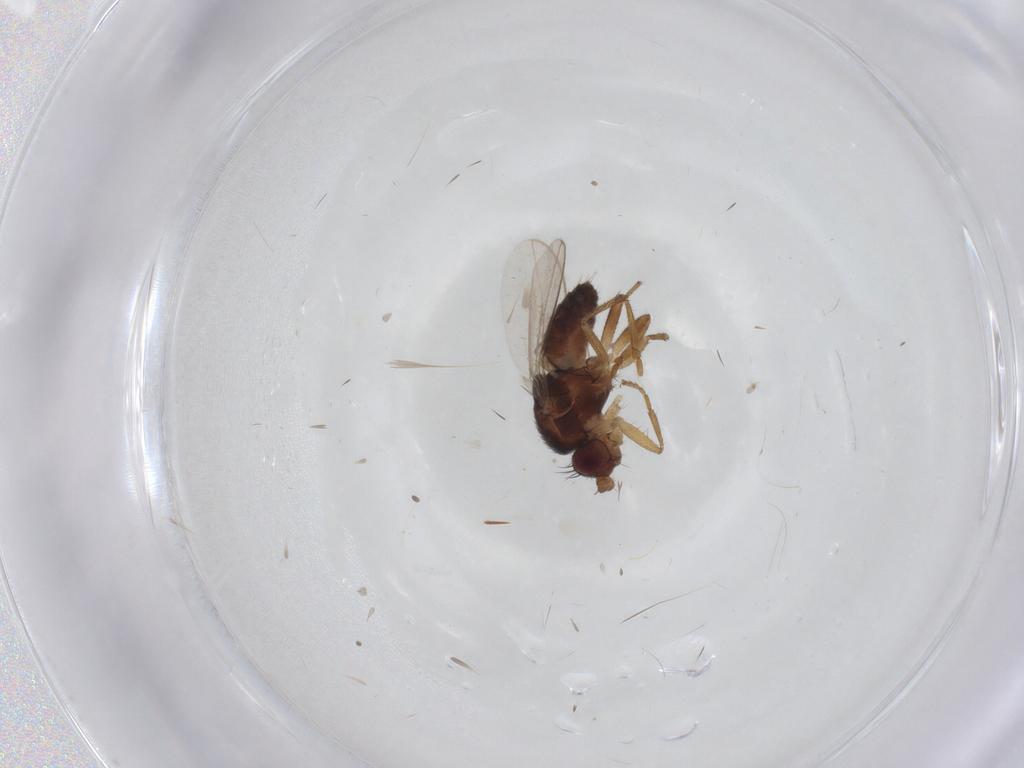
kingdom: Animalia
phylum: Arthropoda
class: Insecta
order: Diptera
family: Sphaeroceridae
